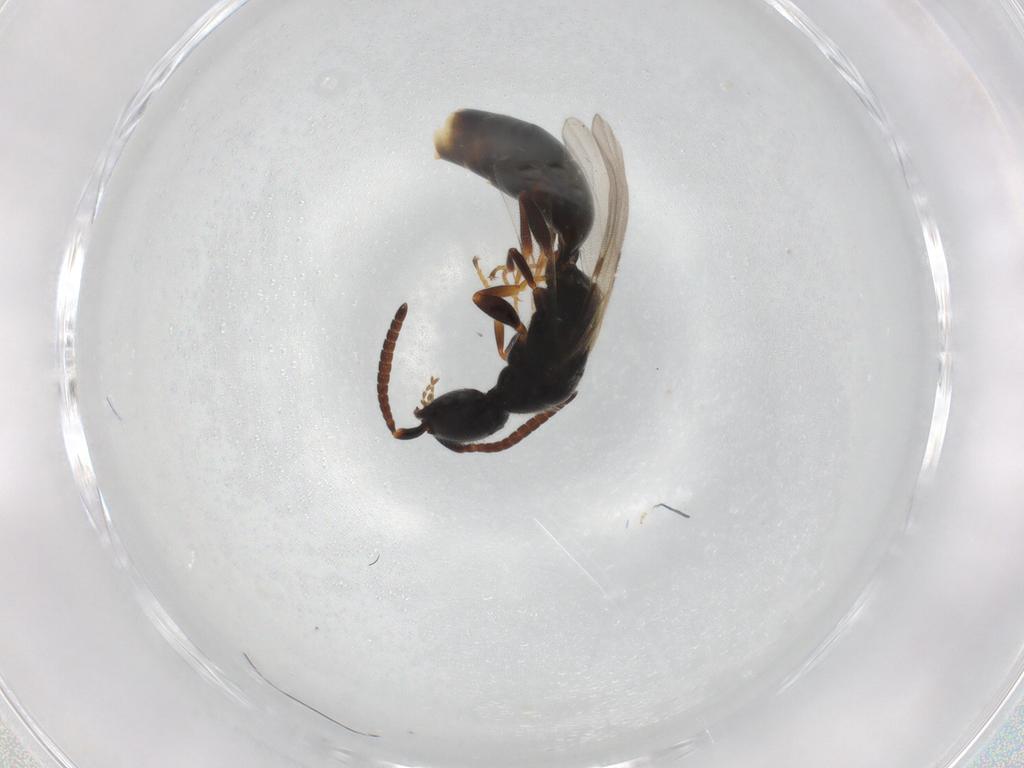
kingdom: Animalia
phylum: Arthropoda
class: Insecta
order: Hymenoptera
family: Bethylidae
